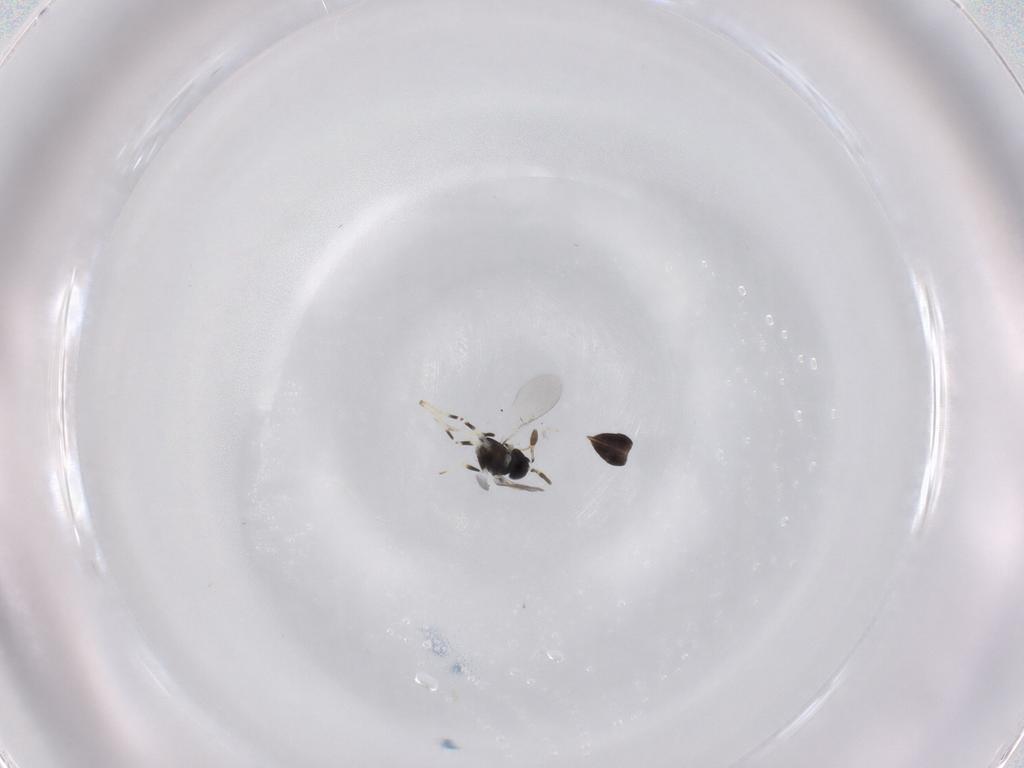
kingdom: Animalia
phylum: Arthropoda
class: Insecta
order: Hymenoptera
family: Encyrtidae
